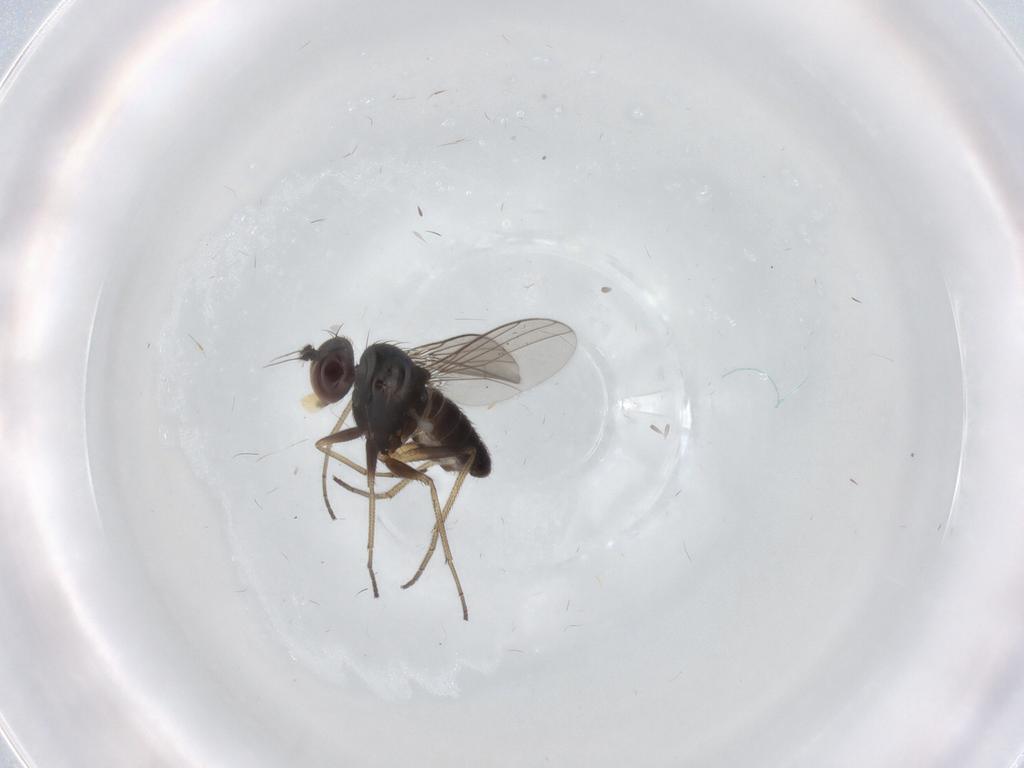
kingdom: Animalia
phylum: Arthropoda
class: Insecta
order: Diptera
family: Dolichopodidae
